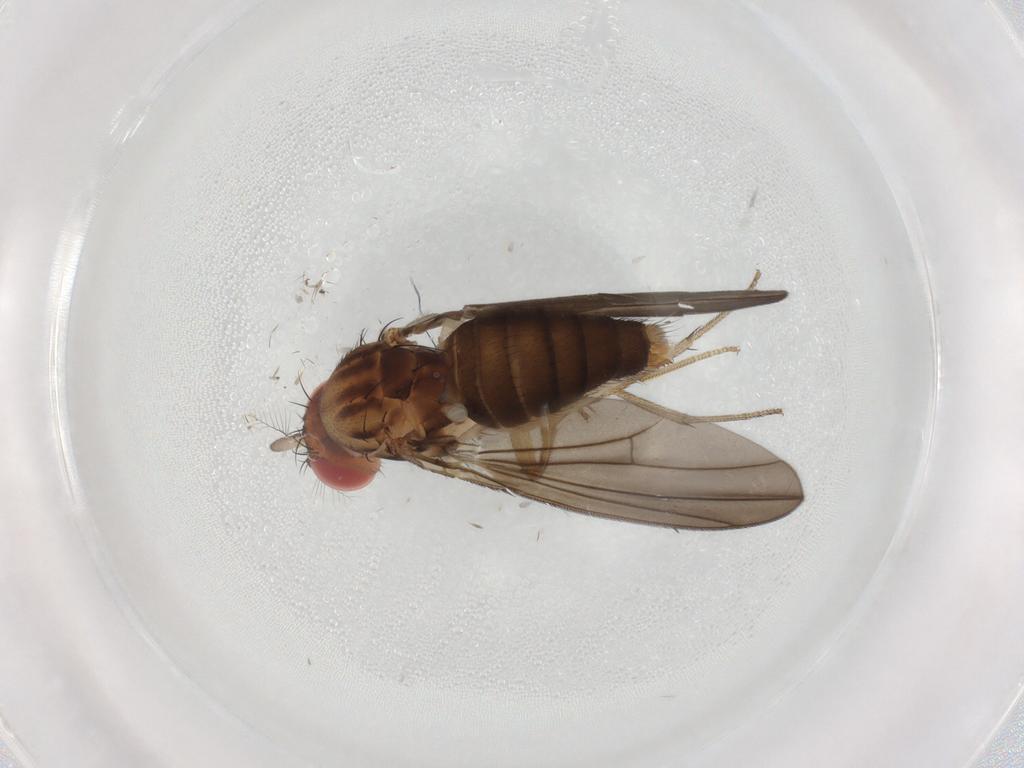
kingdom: Animalia
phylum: Arthropoda
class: Insecta
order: Diptera
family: Drosophilidae
